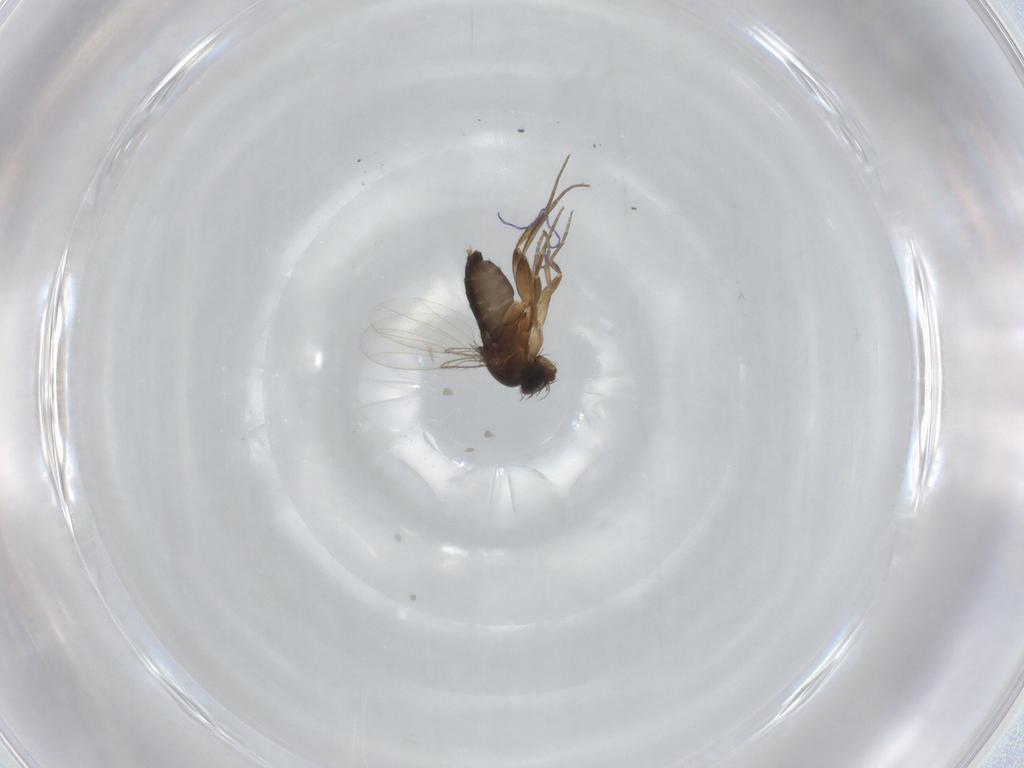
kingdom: Animalia
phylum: Arthropoda
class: Insecta
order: Diptera
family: Phoridae
